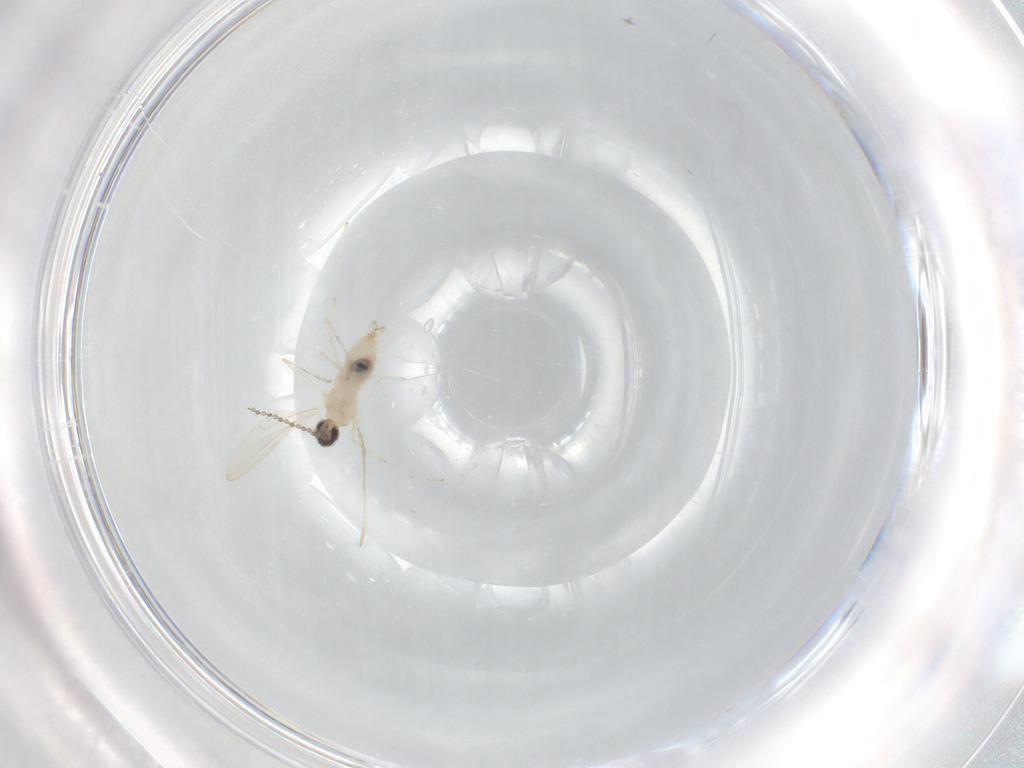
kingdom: Animalia
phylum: Arthropoda
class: Insecta
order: Diptera
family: Cecidomyiidae
